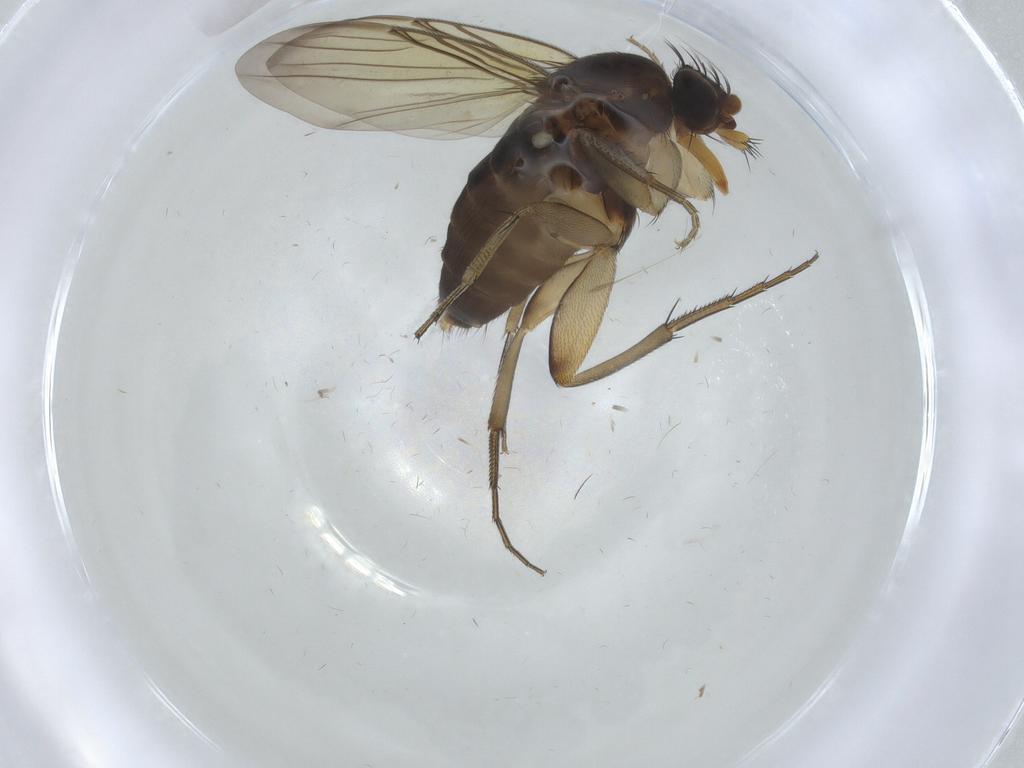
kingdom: Animalia
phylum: Arthropoda
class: Insecta
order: Diptera
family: Phoridae
